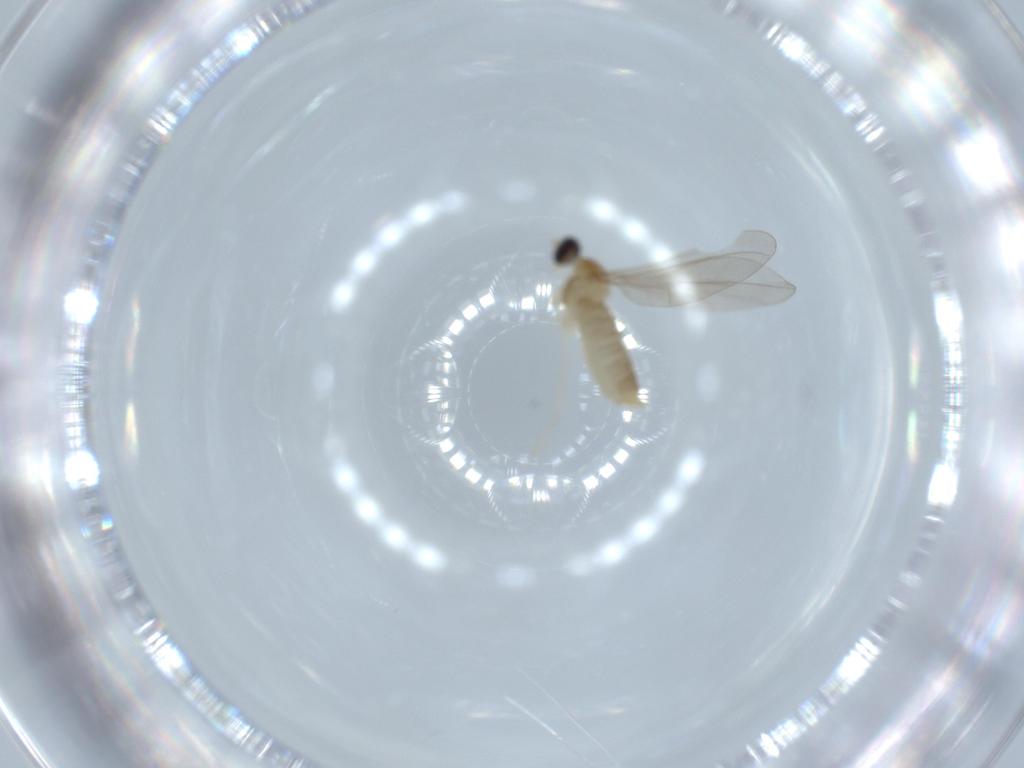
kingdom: Animalia
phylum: Arthropoda
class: Insecta
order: Diptera
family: Cecidomyiidae
